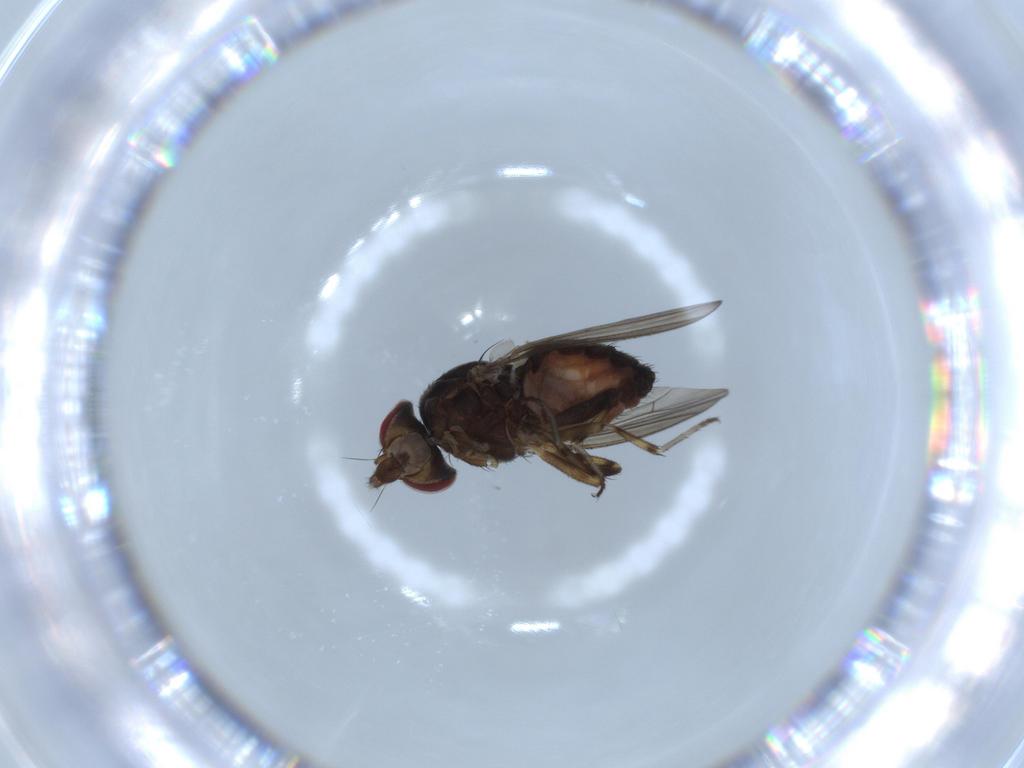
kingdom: Animalia
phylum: Arthropoda
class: Insecta
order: Diptera
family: Heleomyzidae
